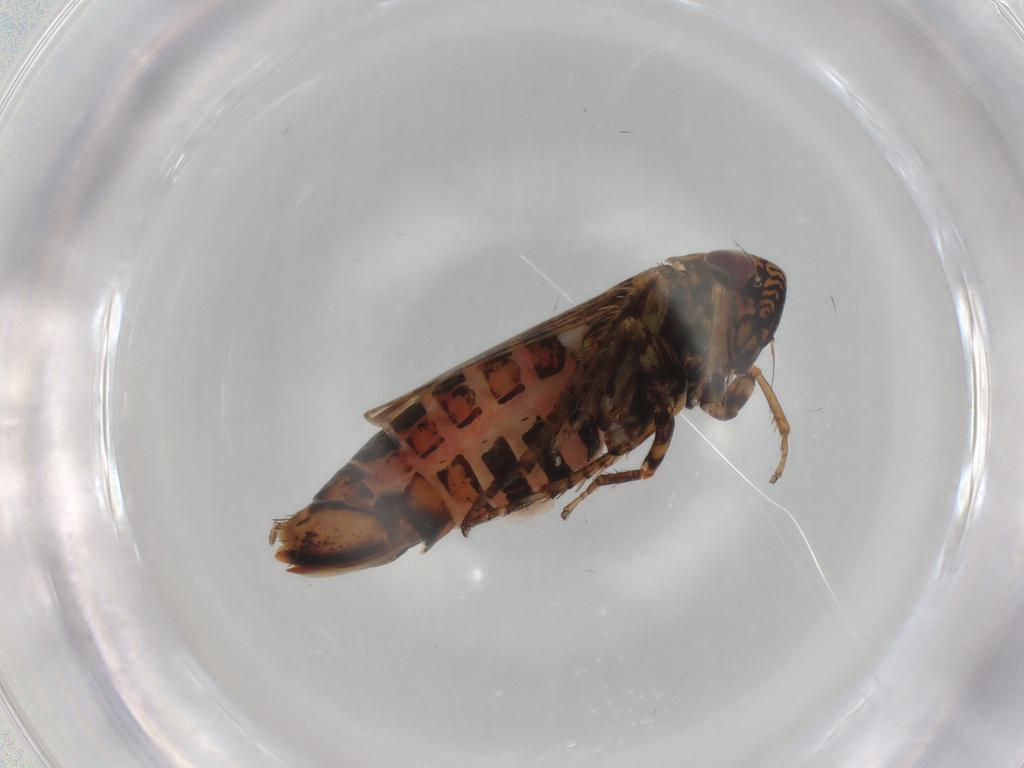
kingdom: Animalia
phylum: Arthropoda
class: Insecta
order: Hemiptera
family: Cicadellidae
